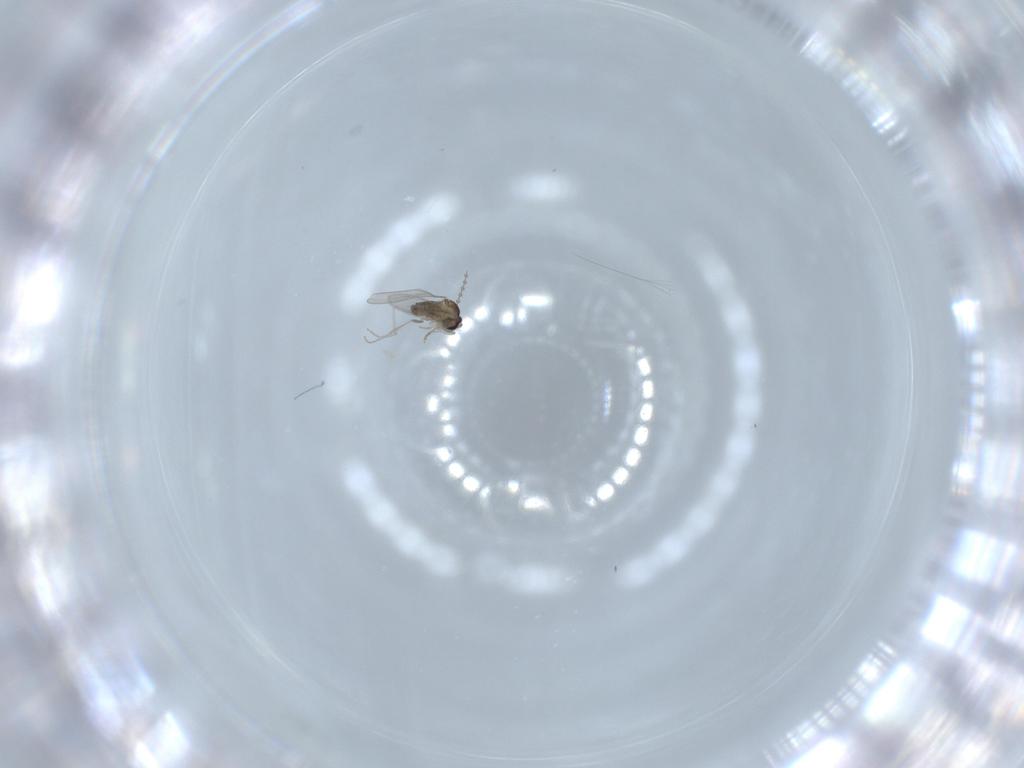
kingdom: Animalia
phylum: Arthropoda
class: Insecta
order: Diptera
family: Cecidomyiidae
